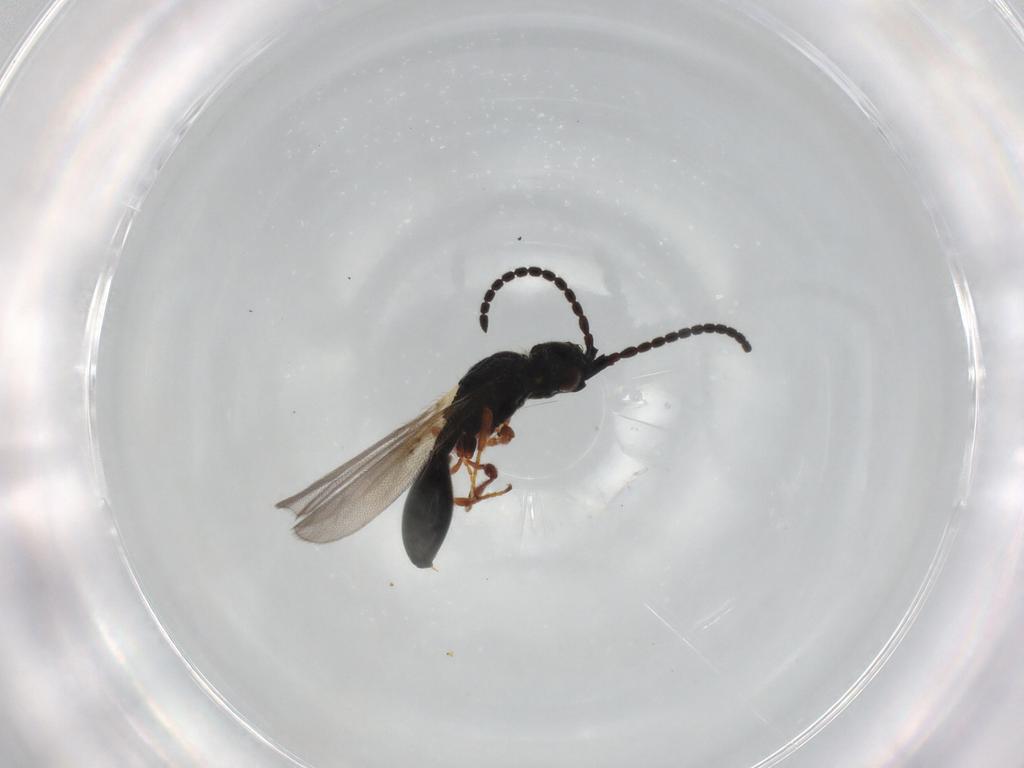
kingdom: Animalia
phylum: Arthropoda
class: Insecta
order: Hymenoptera
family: Diapriidae
